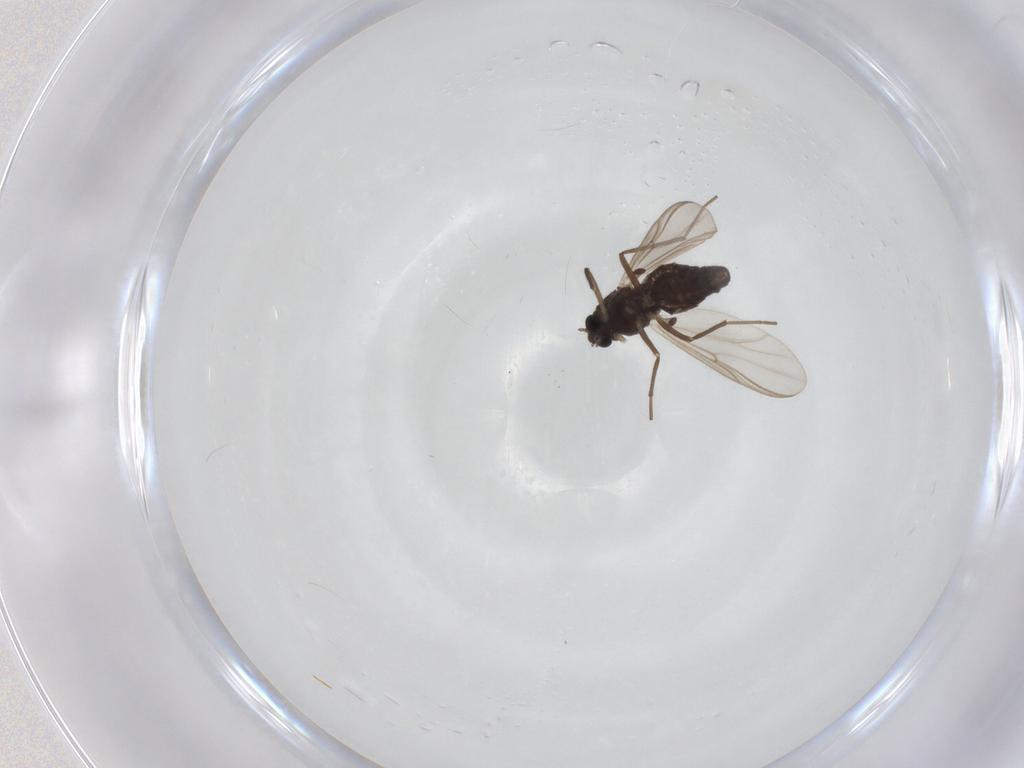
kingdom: Animalia
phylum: Arthropoda
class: Insecta
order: Diptera
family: Chironomidae
